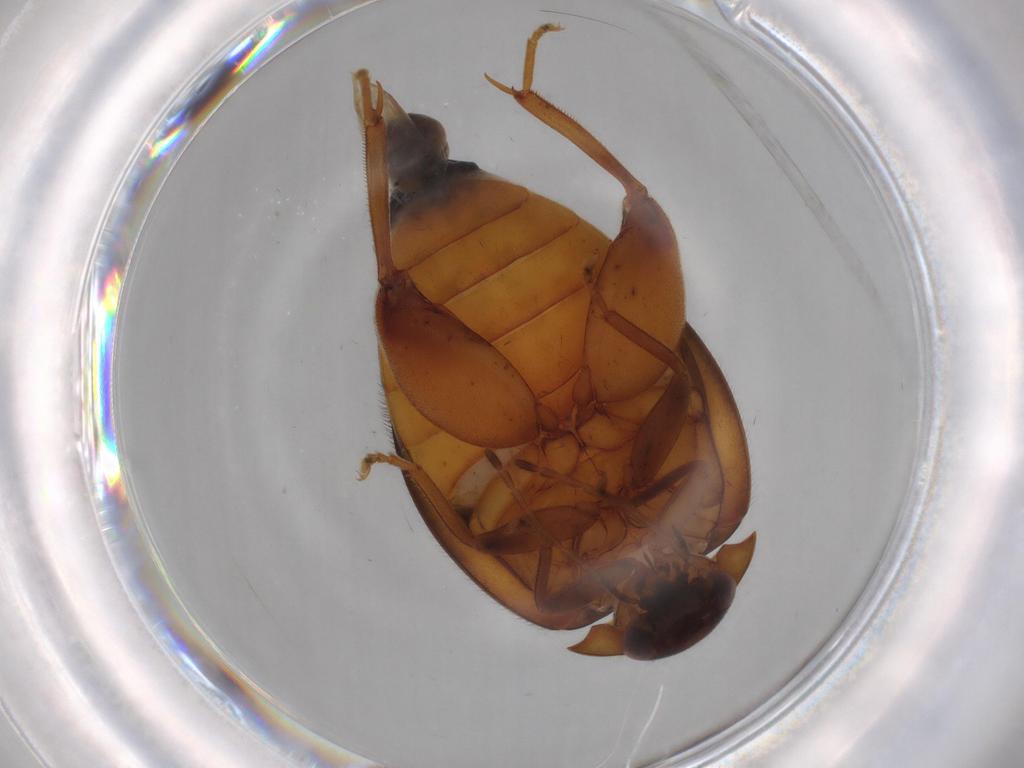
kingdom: Animalia
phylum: Arthropoda
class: Insecta
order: Coleoptera
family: Scirtidae
